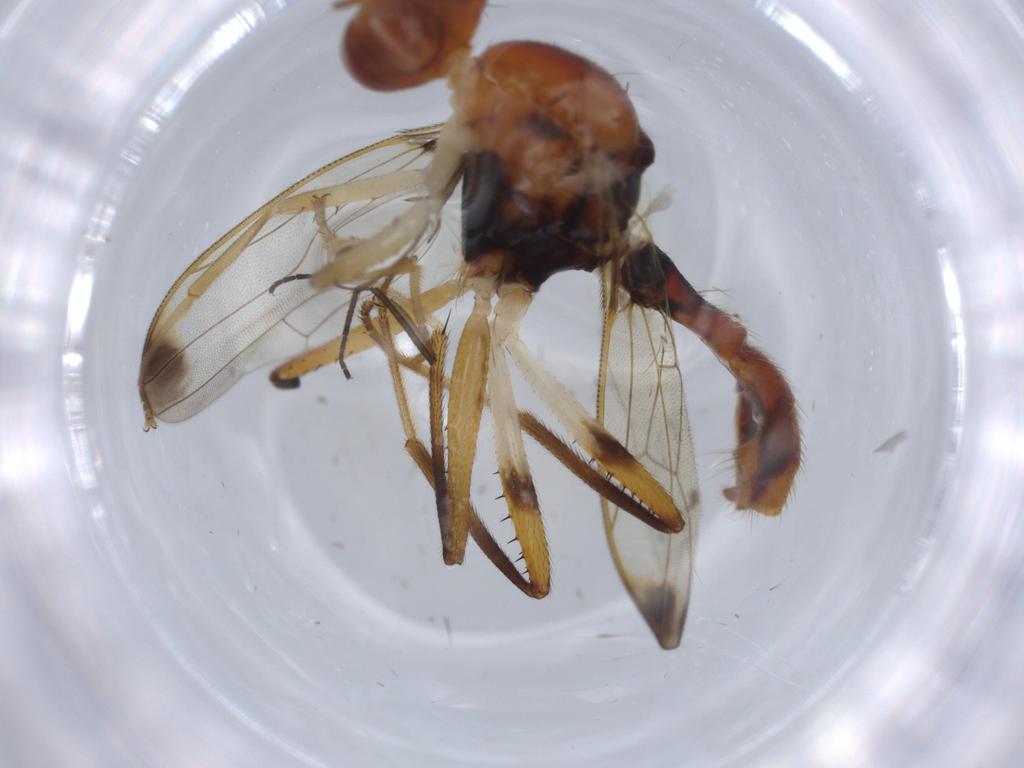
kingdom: Animalia
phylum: Arthropoda
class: Insecta
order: Diptera
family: Sciaridae
